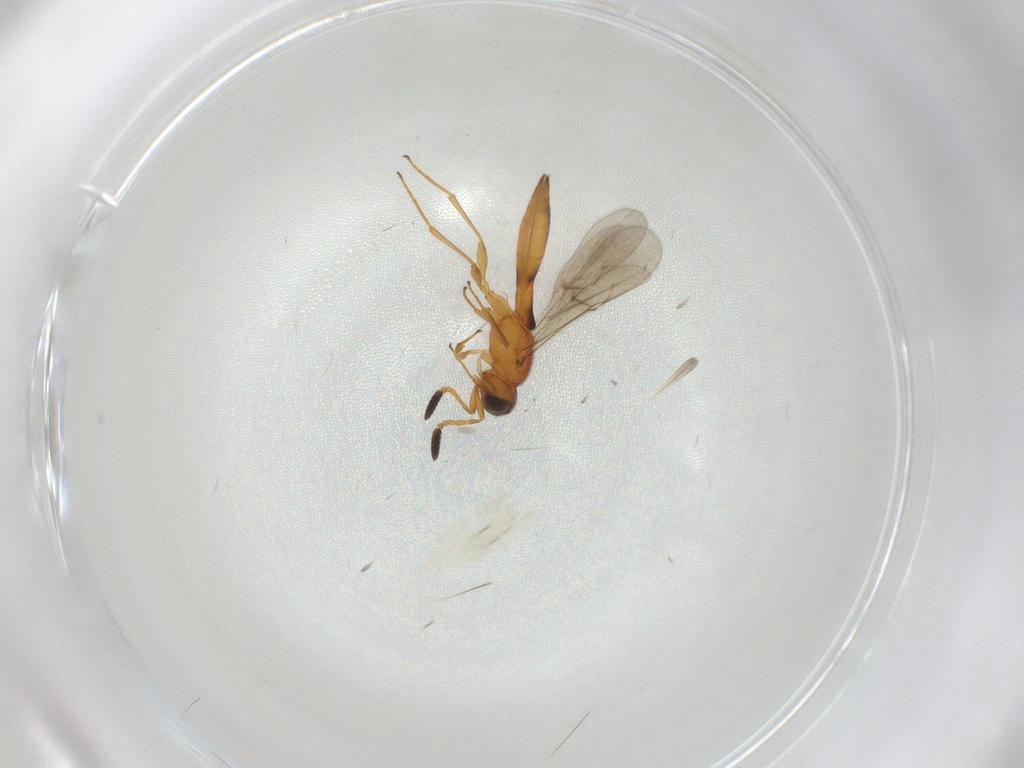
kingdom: Animalia
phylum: Arthropoda
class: Insecta
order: Hymenoptera
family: Scelionidae
